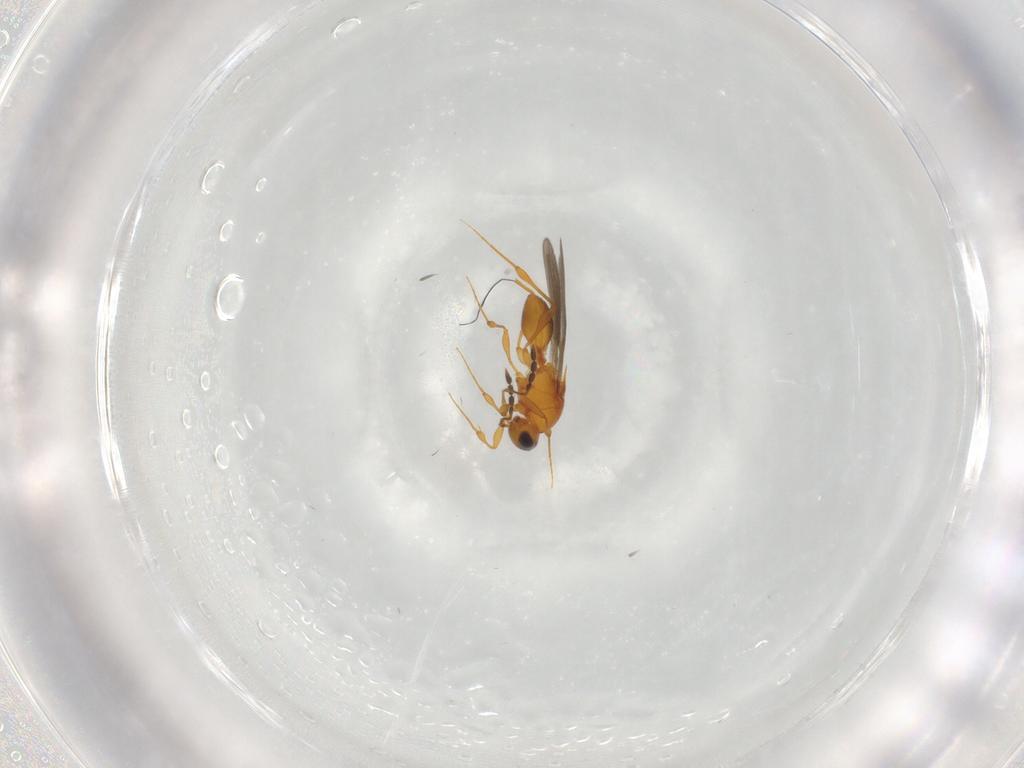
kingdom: Animalia
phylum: Arthropoda
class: Insecta
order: Hymenoptera
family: Platygastridae
